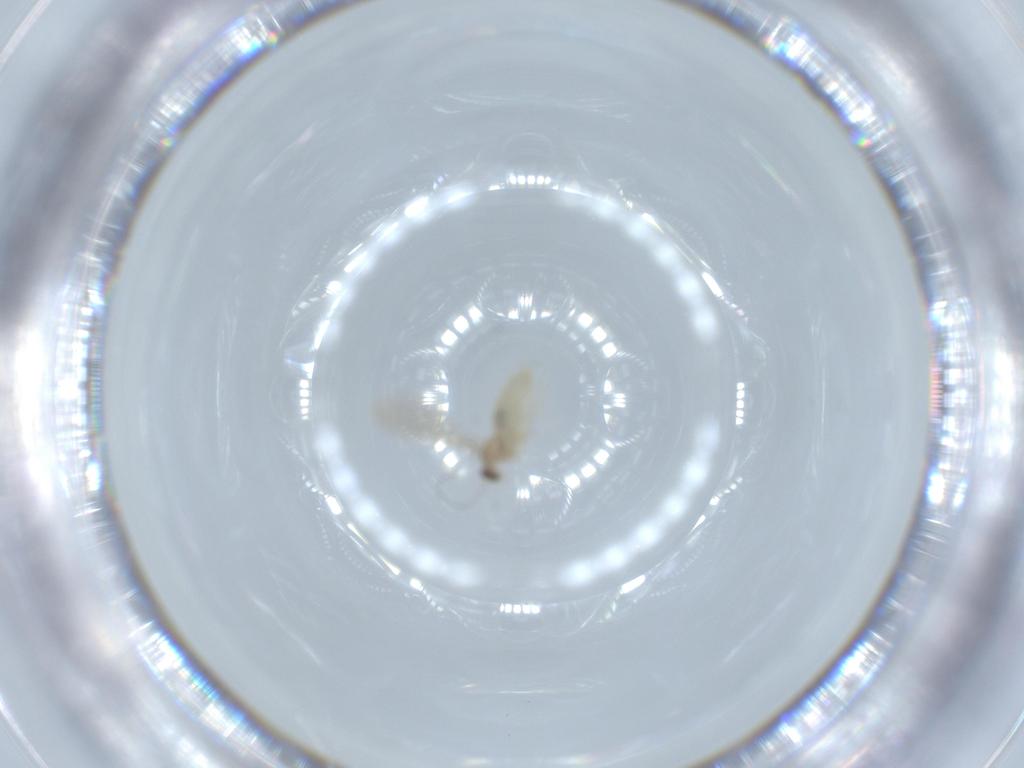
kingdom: Animalia
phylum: Arthropoda
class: Insecta
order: Diptera
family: Cecidomyiidae
